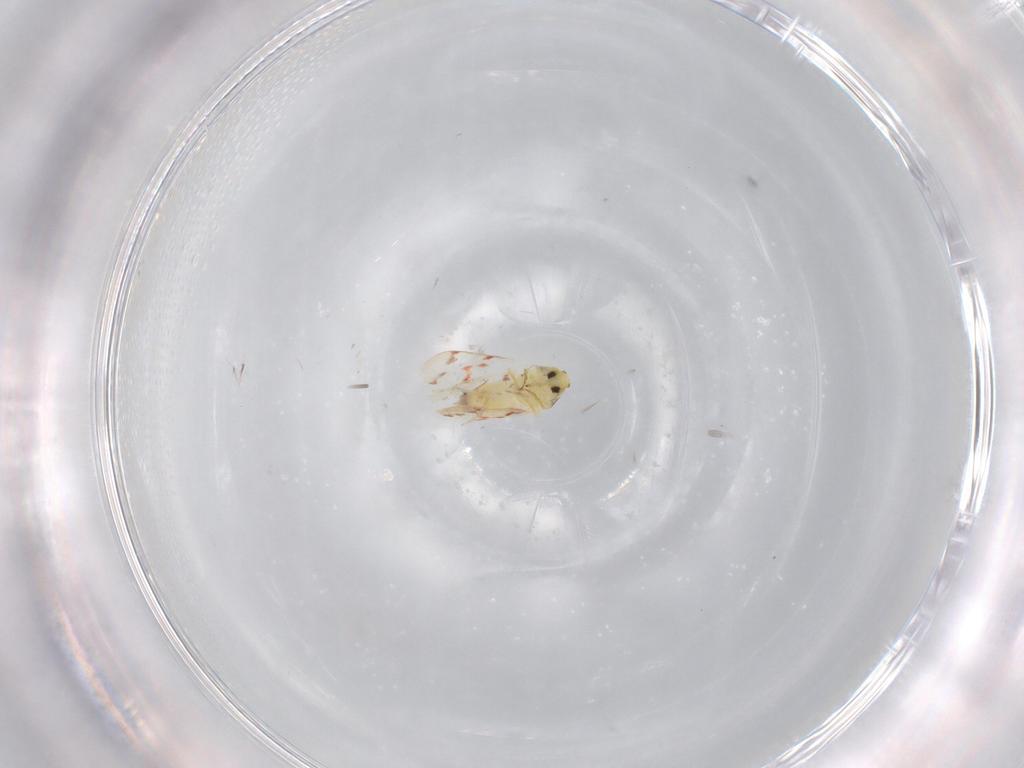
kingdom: Animalia
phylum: Arthropoda
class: Insecta
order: Hemiptera
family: Aleyrodidae
